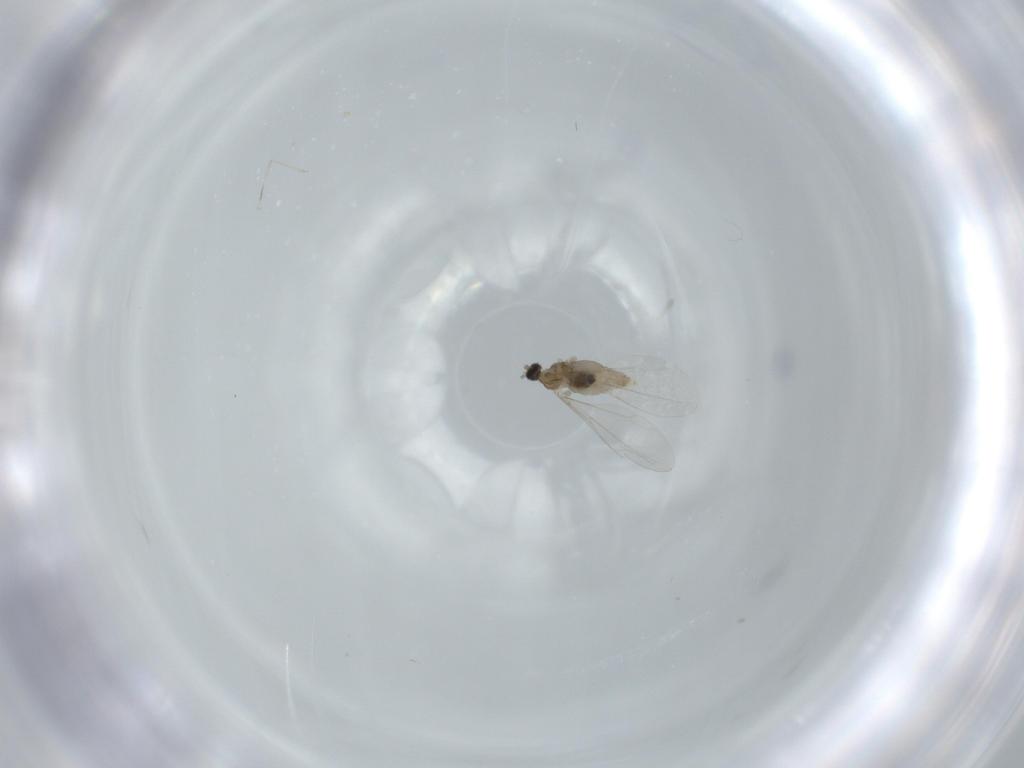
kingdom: Animalia
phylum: Arthropoda
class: Insecta
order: Diptera
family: Cecidomyiidae
